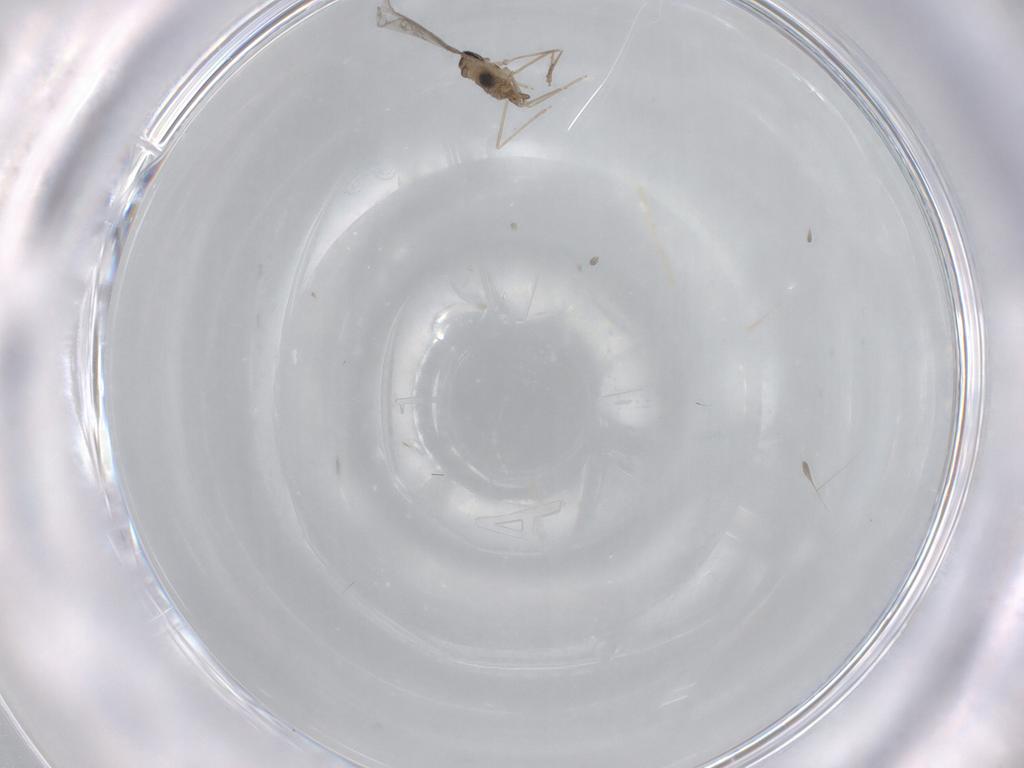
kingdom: Animalia
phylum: Arthropoda
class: Insecta
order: Diptera
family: Cecidomyiidae
